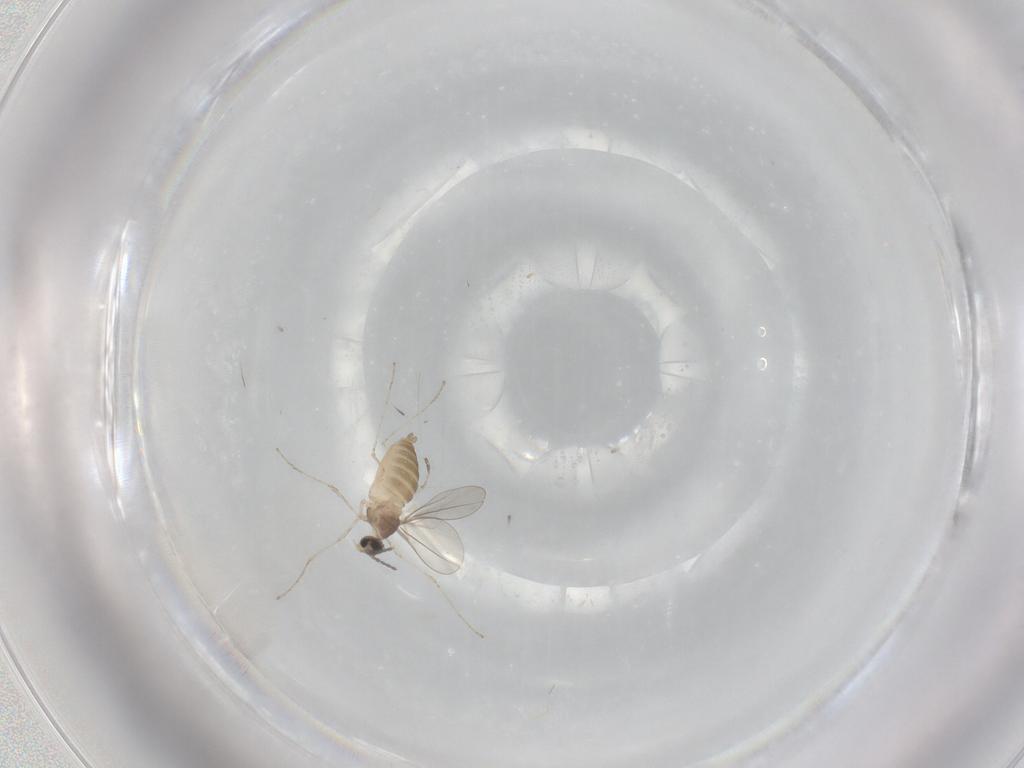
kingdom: Animalia
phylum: Arthropoda
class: Insecta
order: Diptera
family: Cecidomyiidae
